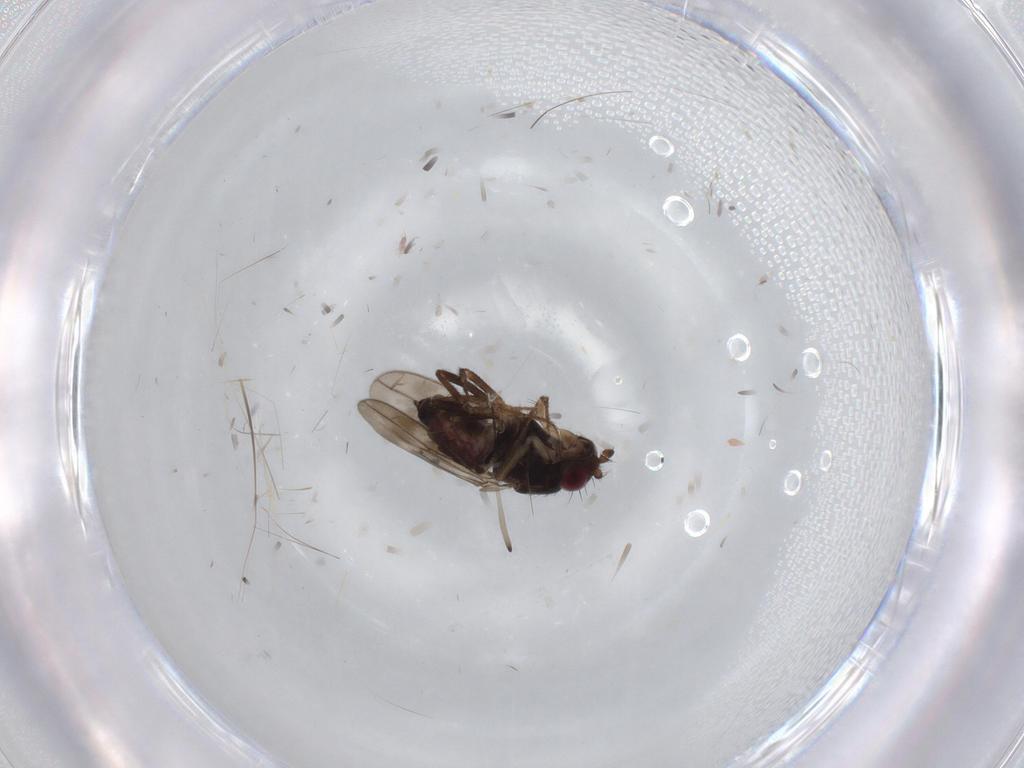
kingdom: Animalia
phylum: Arthropoda
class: Insecta
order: Diptera
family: Sphaeroceridae
